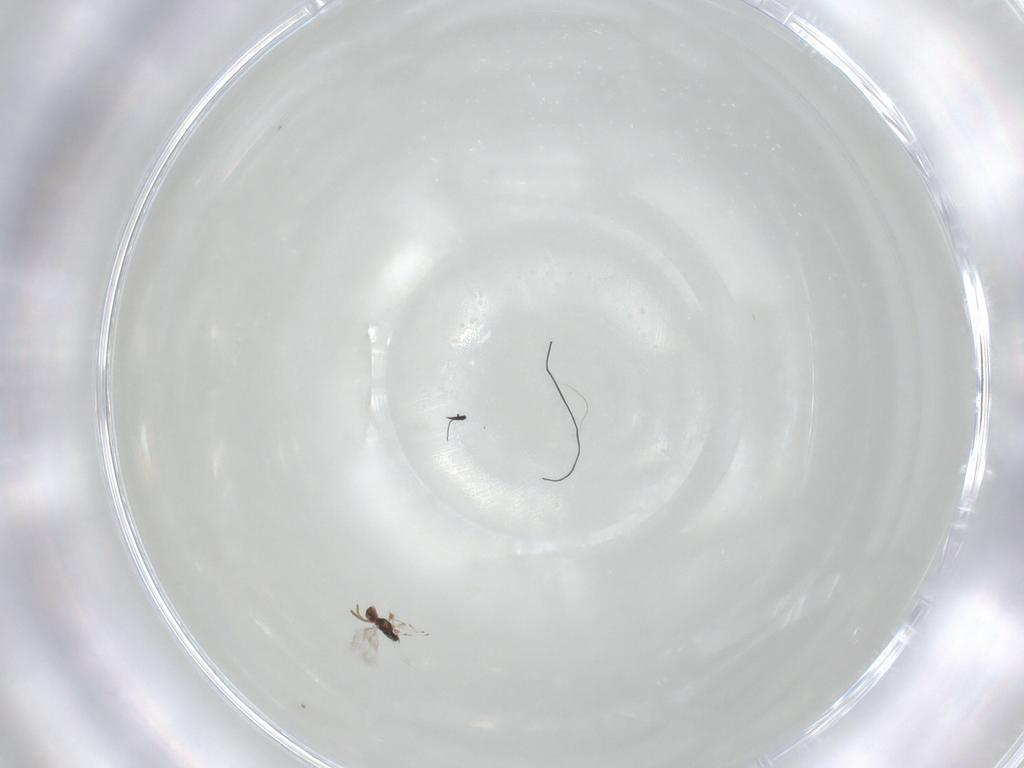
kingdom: Animalia
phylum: Arthropoda
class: Insecta
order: Hymenoptera
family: Azotidae
